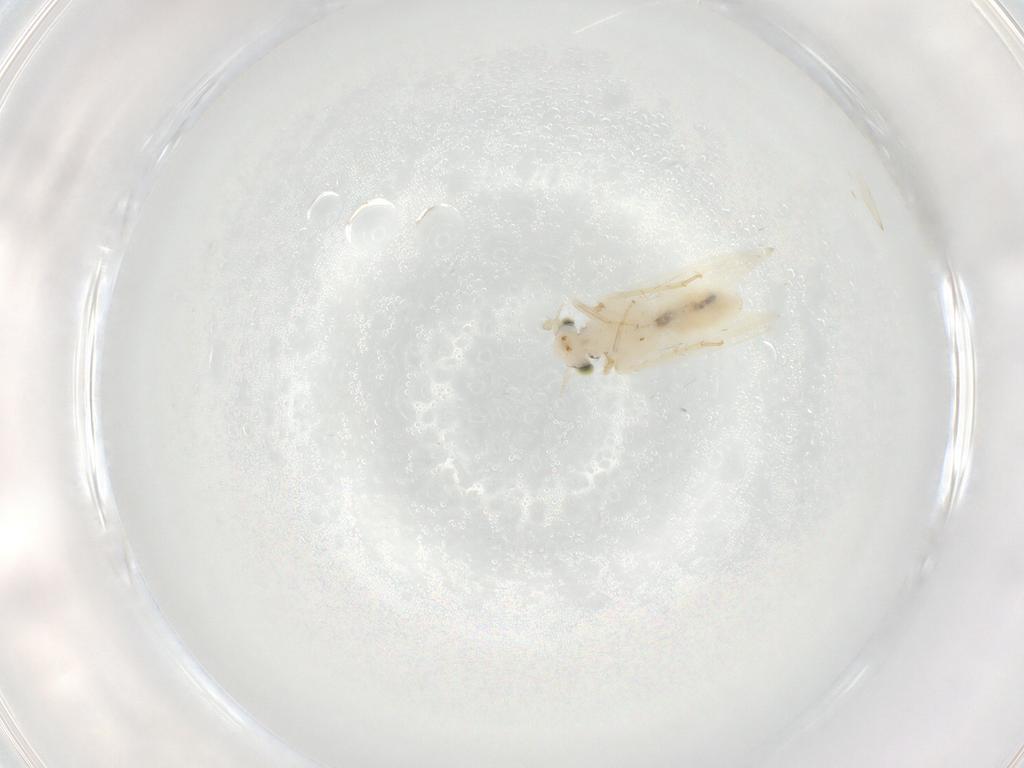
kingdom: Animalia
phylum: Arthropoda
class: Insecta
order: Psocodea
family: Lepidopsocidae
